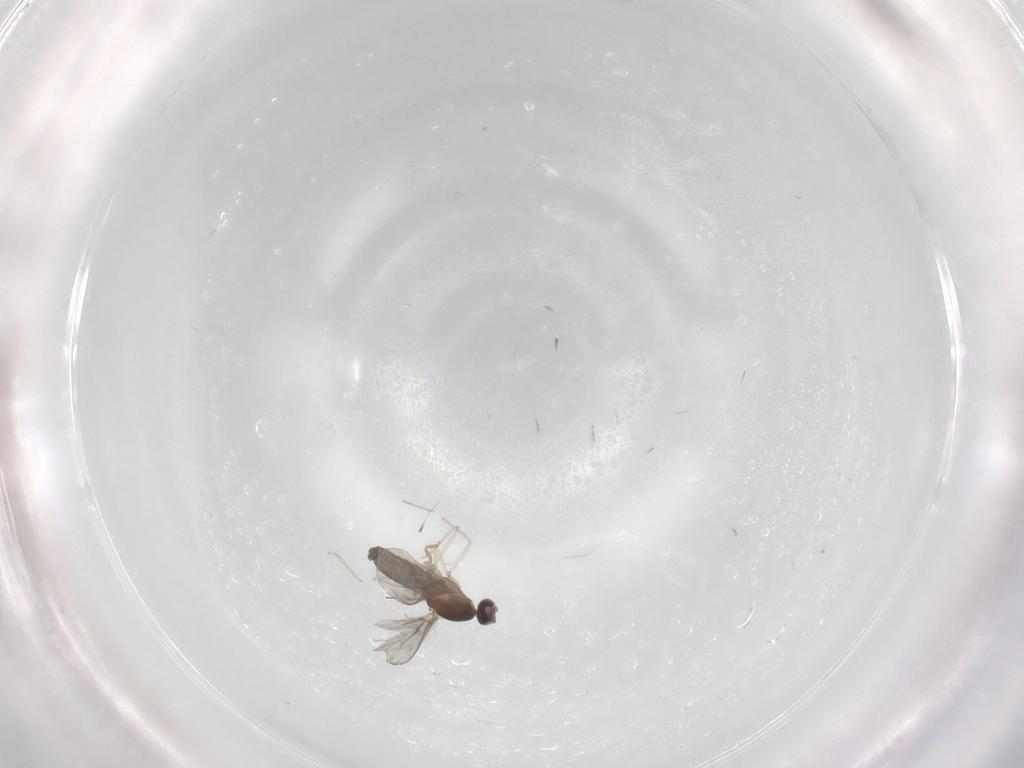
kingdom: Animalia
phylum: Arthropoda
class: Insecta
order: Diptera
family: Cecidomyiidae
